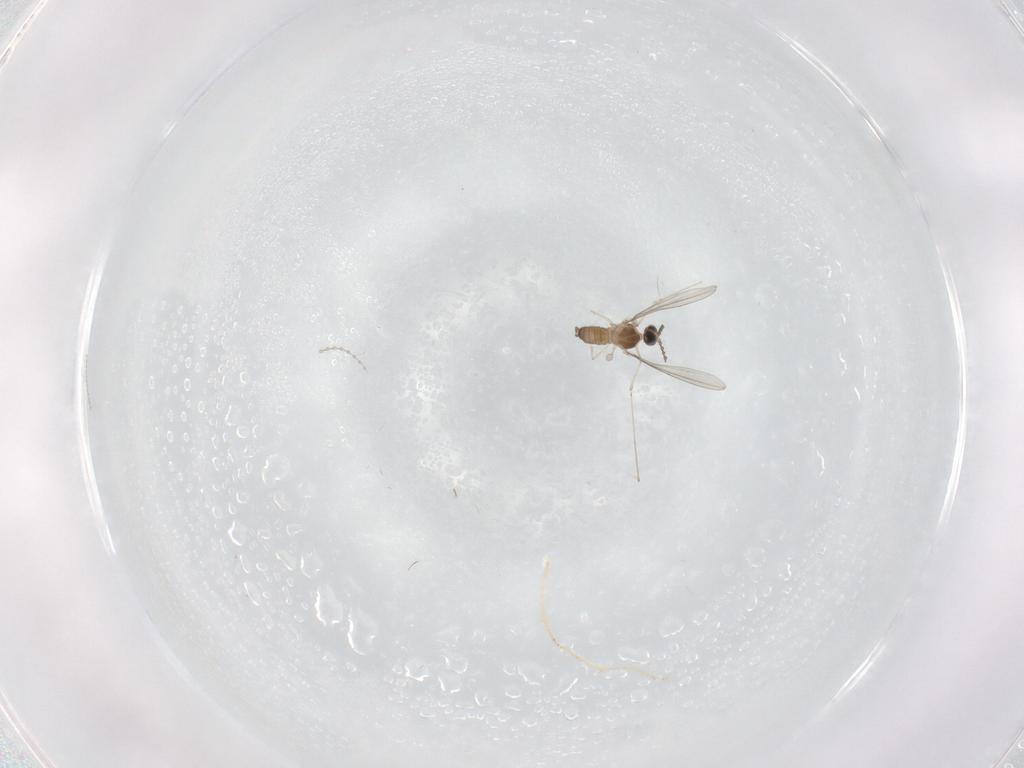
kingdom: Animalia
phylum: Arthropoda
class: Insecta
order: Diptera
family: Cecidomyiidae
